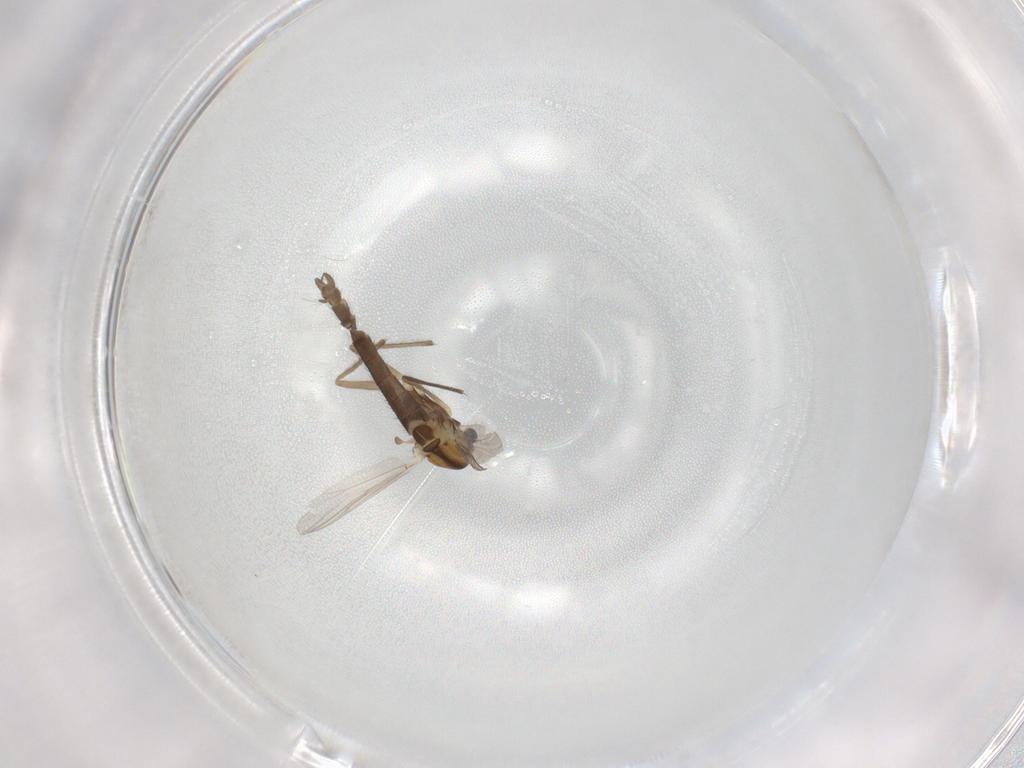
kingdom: Animalia
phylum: Arthropoda
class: Insecta
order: Diptera
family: Chironomidae
